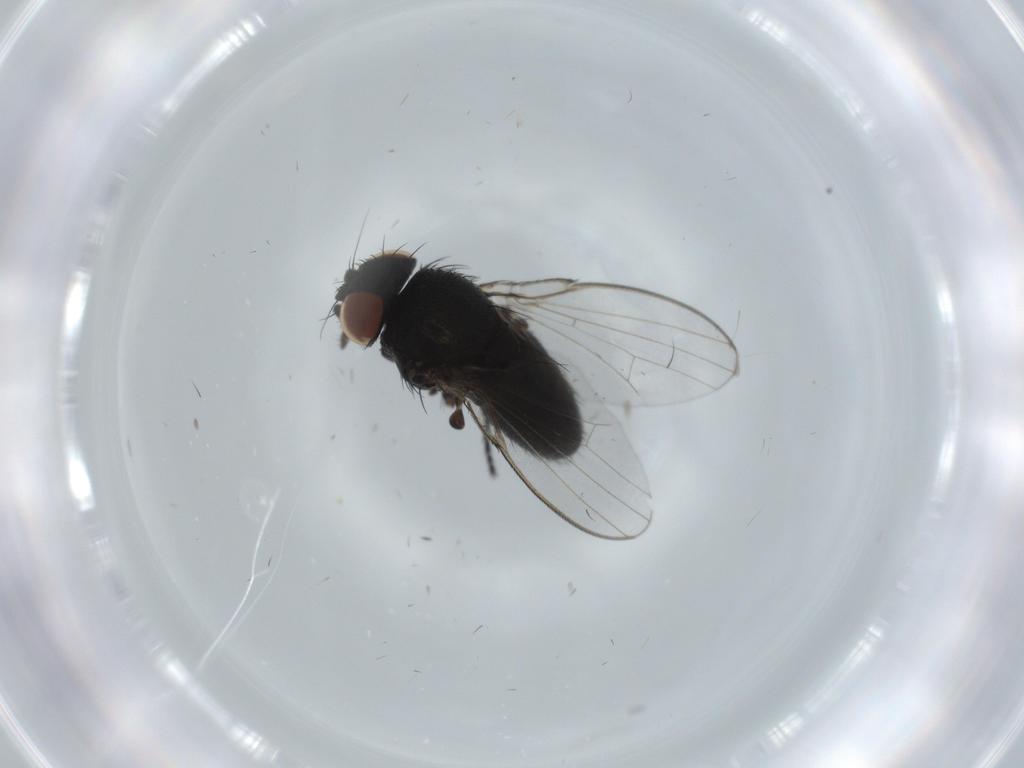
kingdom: Animalia
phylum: Arthropoda
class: Insecta
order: Diptera
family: Milichiidae
